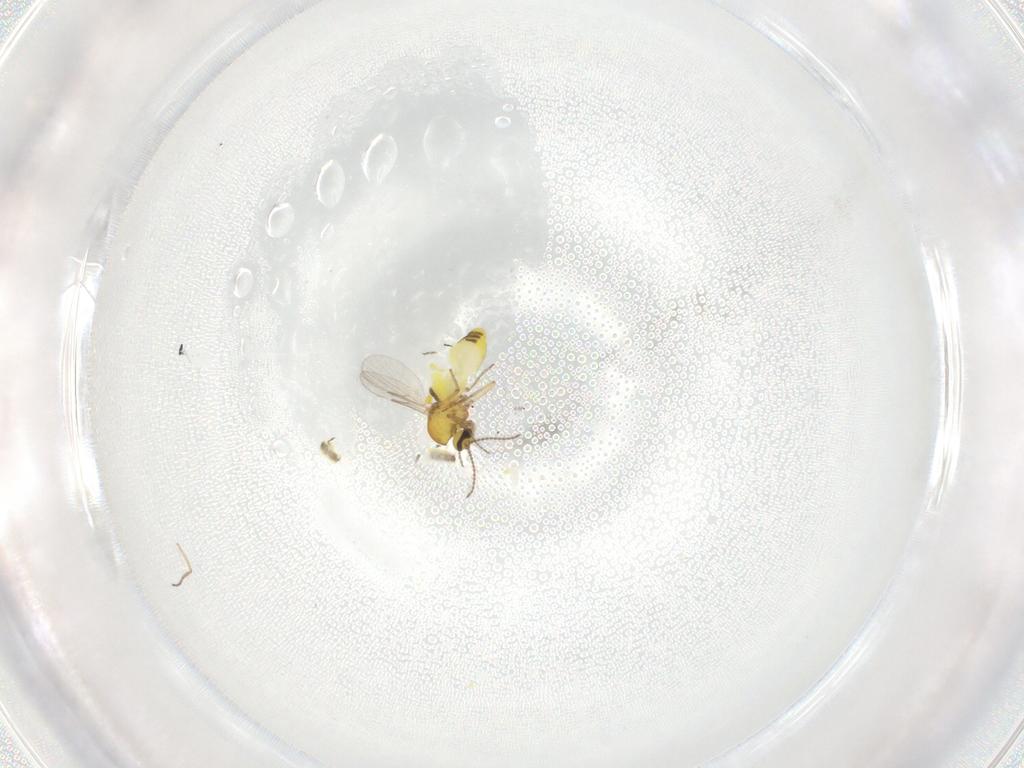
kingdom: Animalia
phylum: Arthropoda
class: Insecta
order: Diptera
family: Ceratopogonidae
